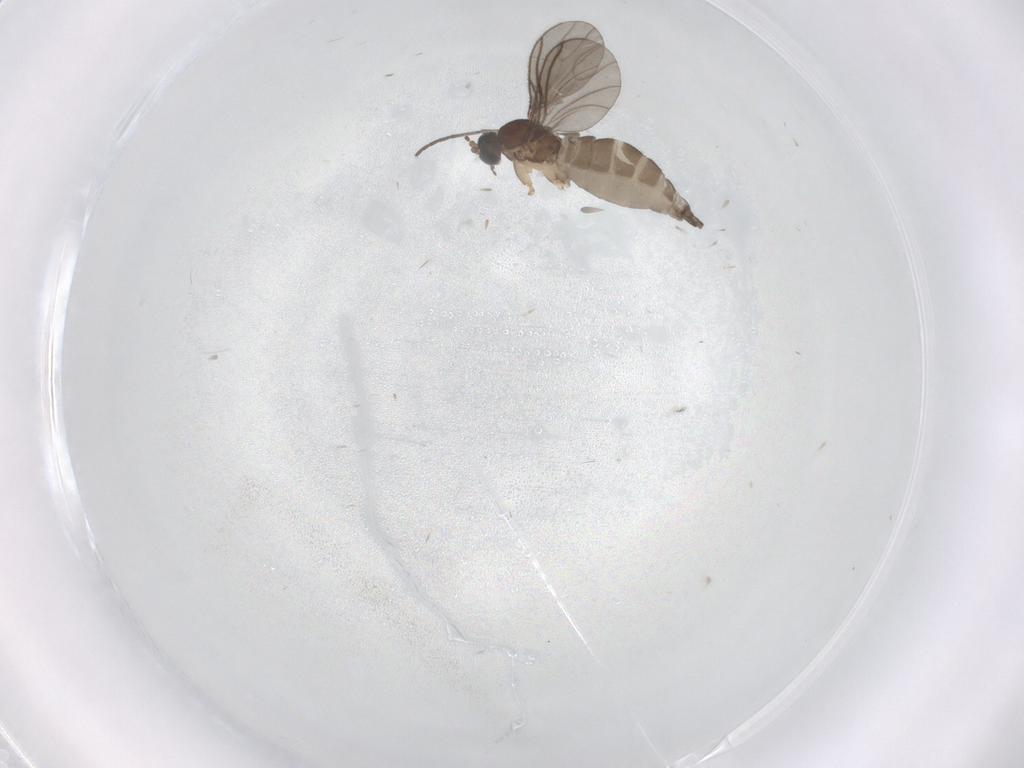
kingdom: Animalia
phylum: Arthropoda
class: Insecta
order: Diptera
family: Sciaridae
